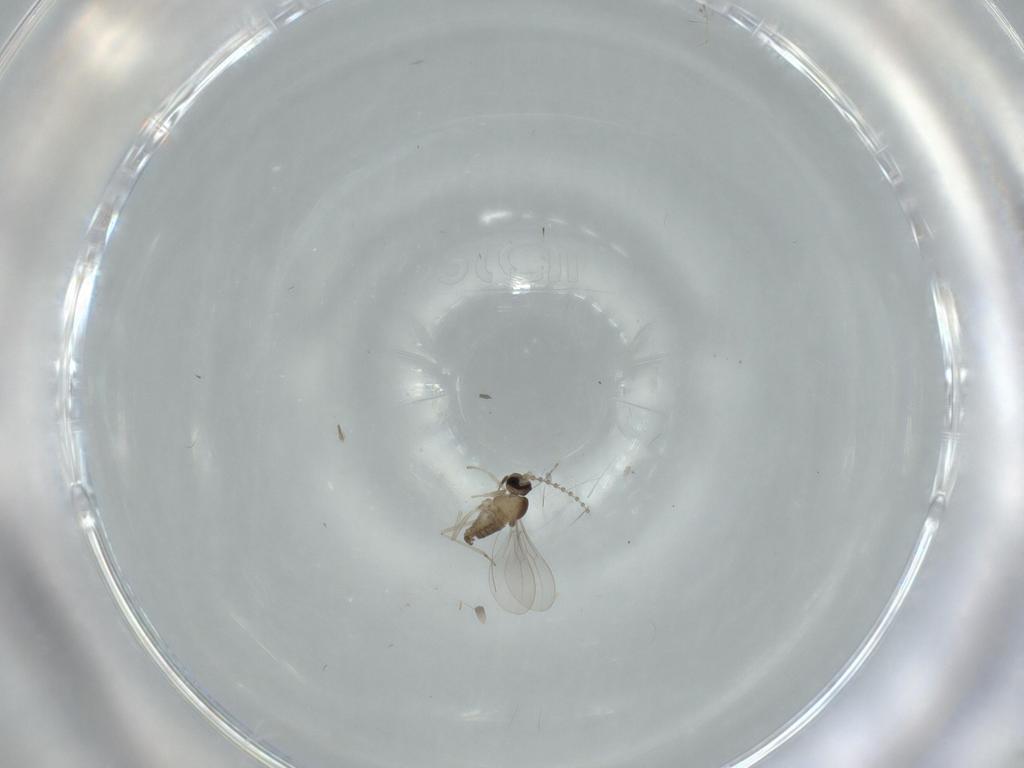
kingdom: Animalia
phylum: Arthropoda
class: Insecta
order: Diptera
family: Cecidomyiidae
